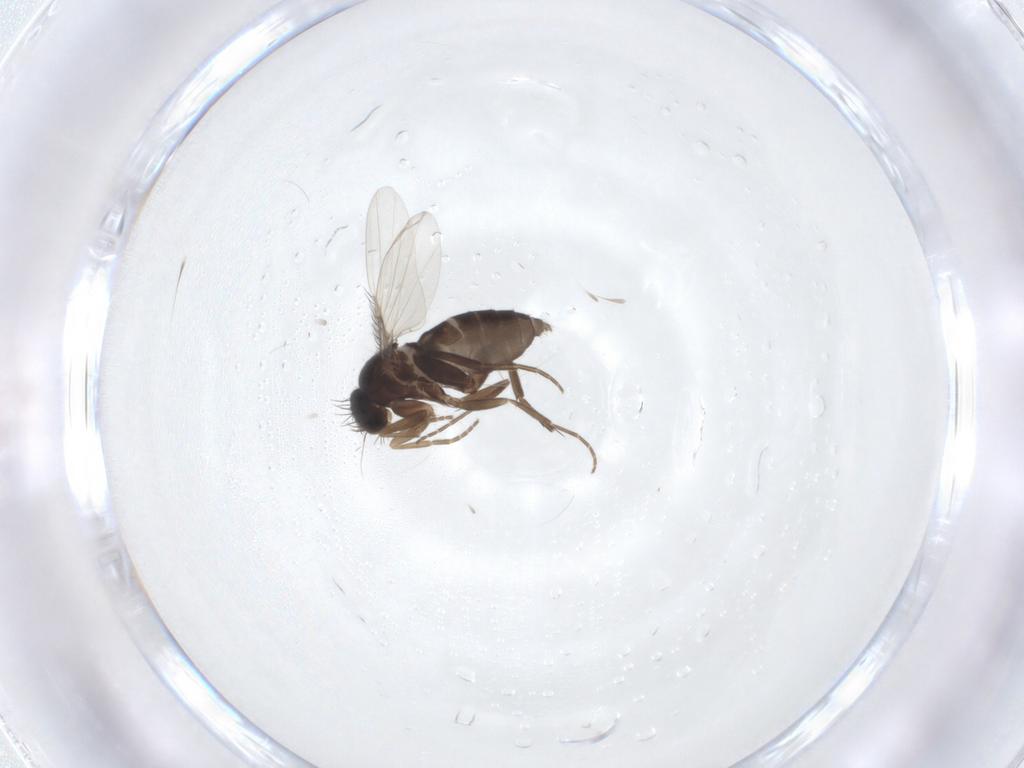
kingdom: Animalia
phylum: Arthropoda
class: Insecta
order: Diptera
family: Phoridae
